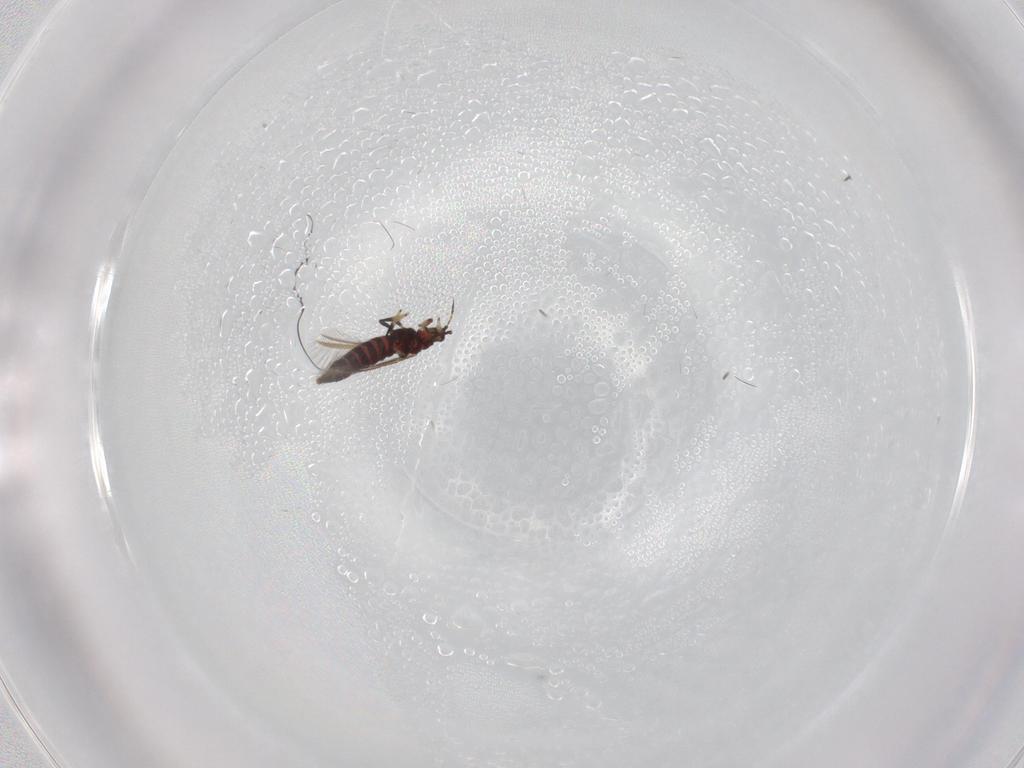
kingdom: Animalia
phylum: Arthropoda
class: Insecta
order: Thysanoptera
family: Thripidae
